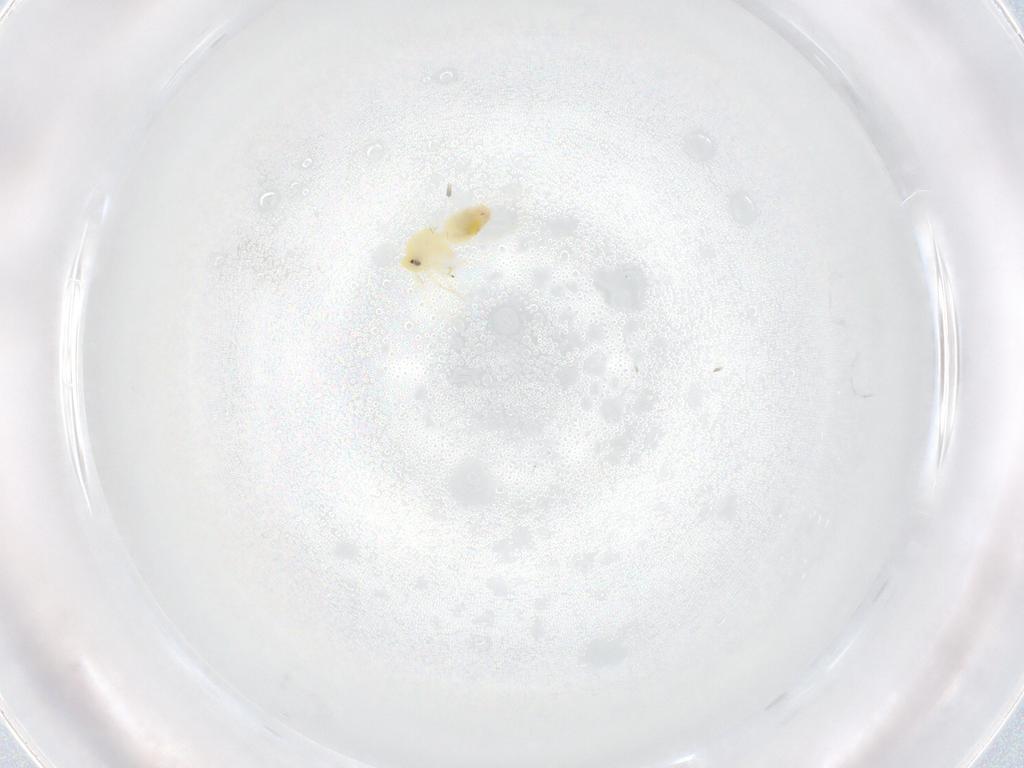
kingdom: Animalia
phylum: Arthropoda
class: Insecta
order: Hemiptera
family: Aleyrodidae
